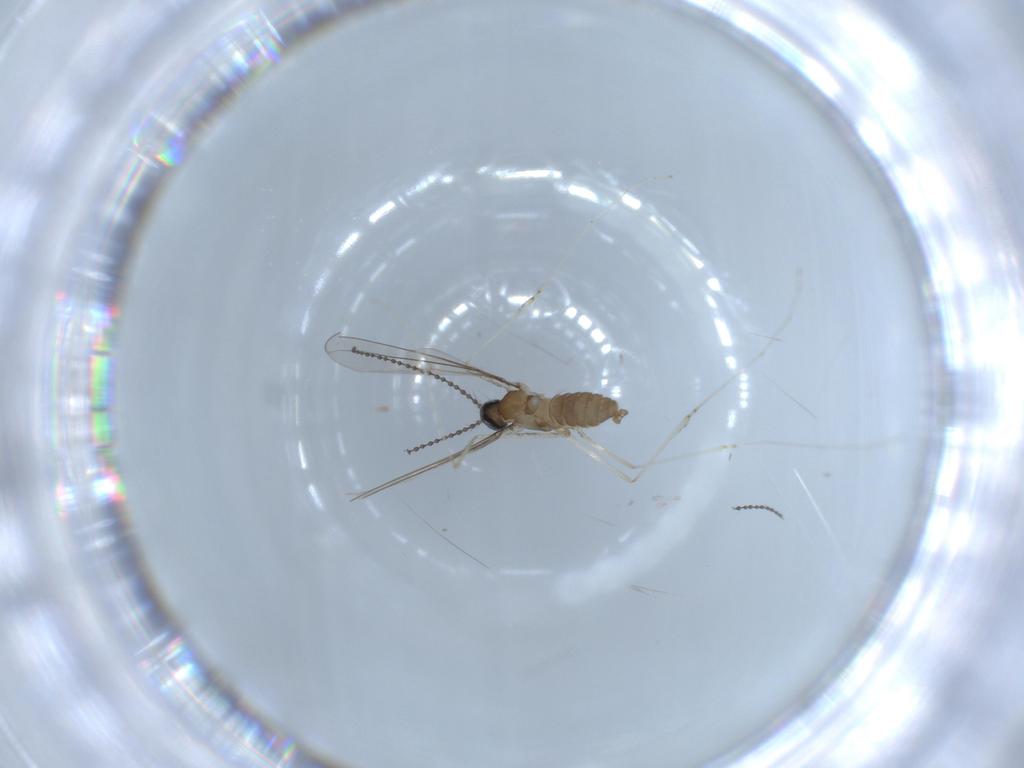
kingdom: Animalia
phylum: Arthropoda
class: Insecta
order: Diptera
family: Cecidomyiidae
